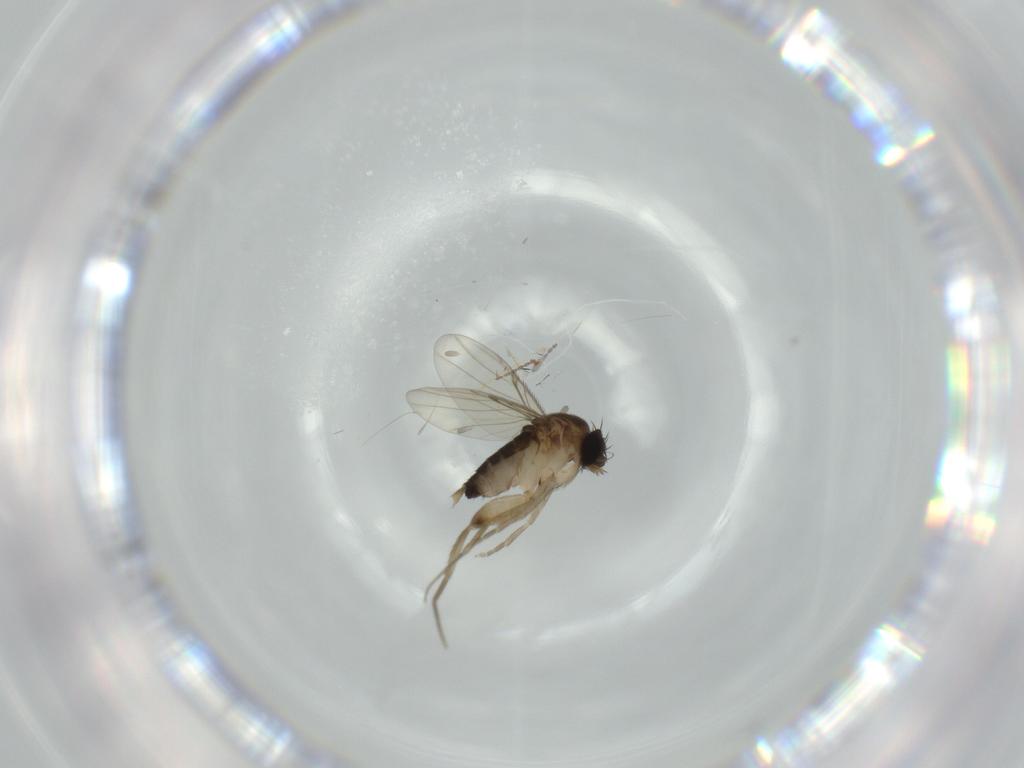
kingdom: Animalia
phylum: Arthropoda
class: Insecta
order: Diptera
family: Cecidomyiidae
